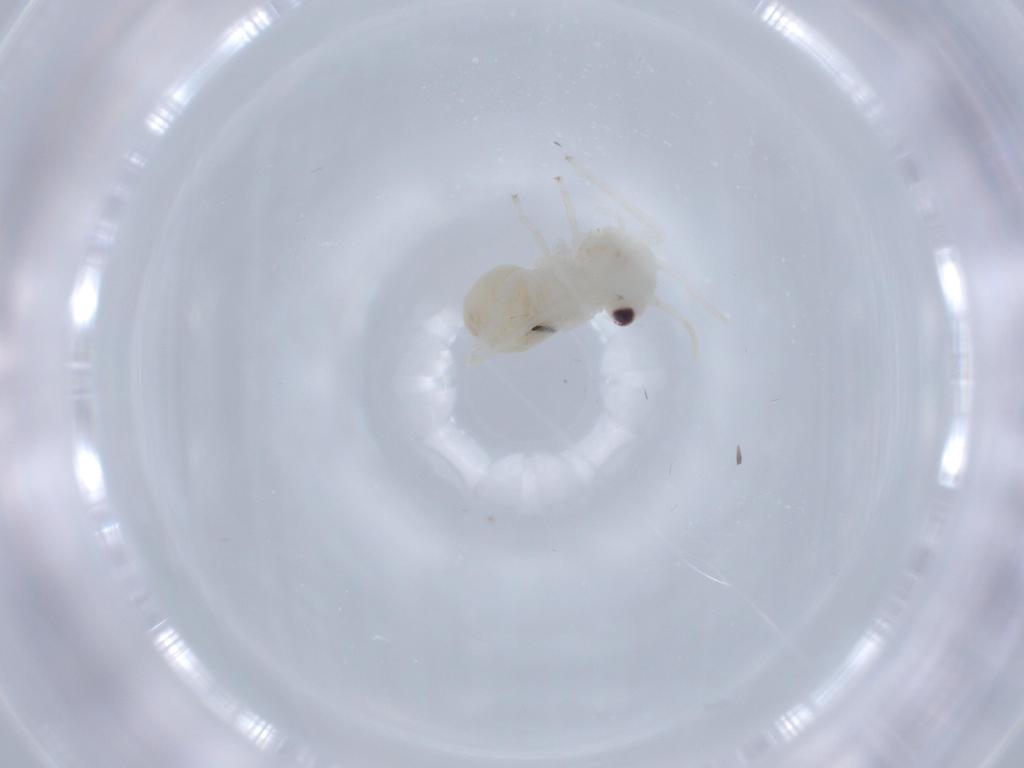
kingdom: Animalia
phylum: Arthropoda
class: Insecta
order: Psocodea
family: Stenopsocidae
